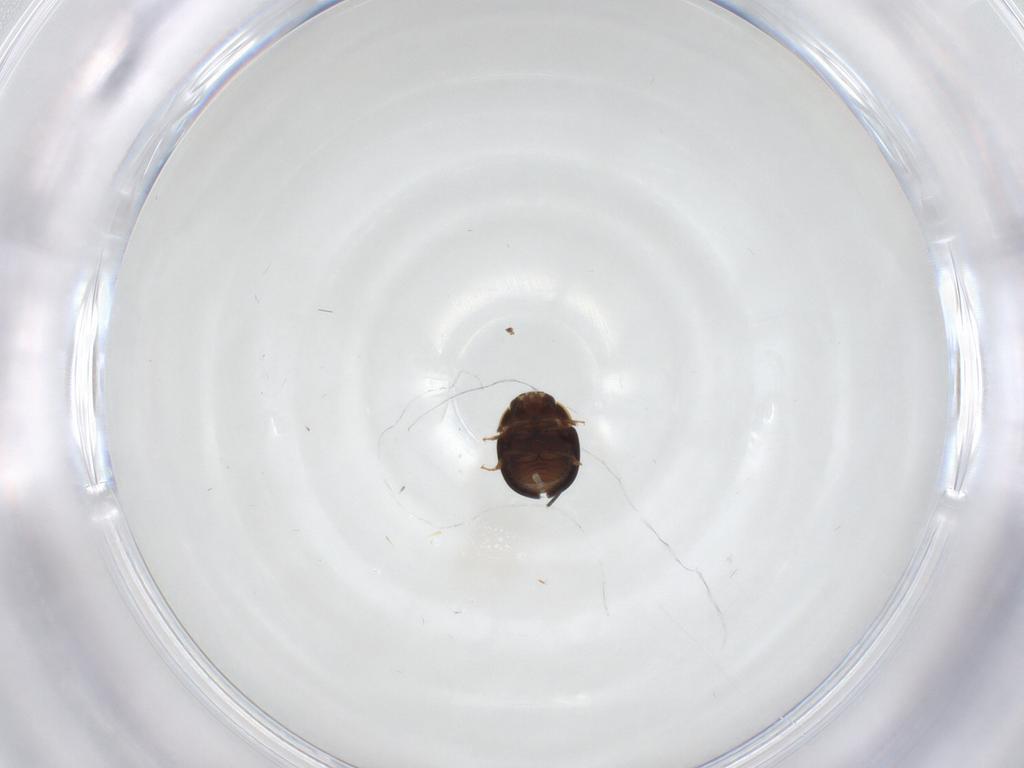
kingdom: Animalia
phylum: Arthropoda
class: Insecta
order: Coleoptera
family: Leiodidae
